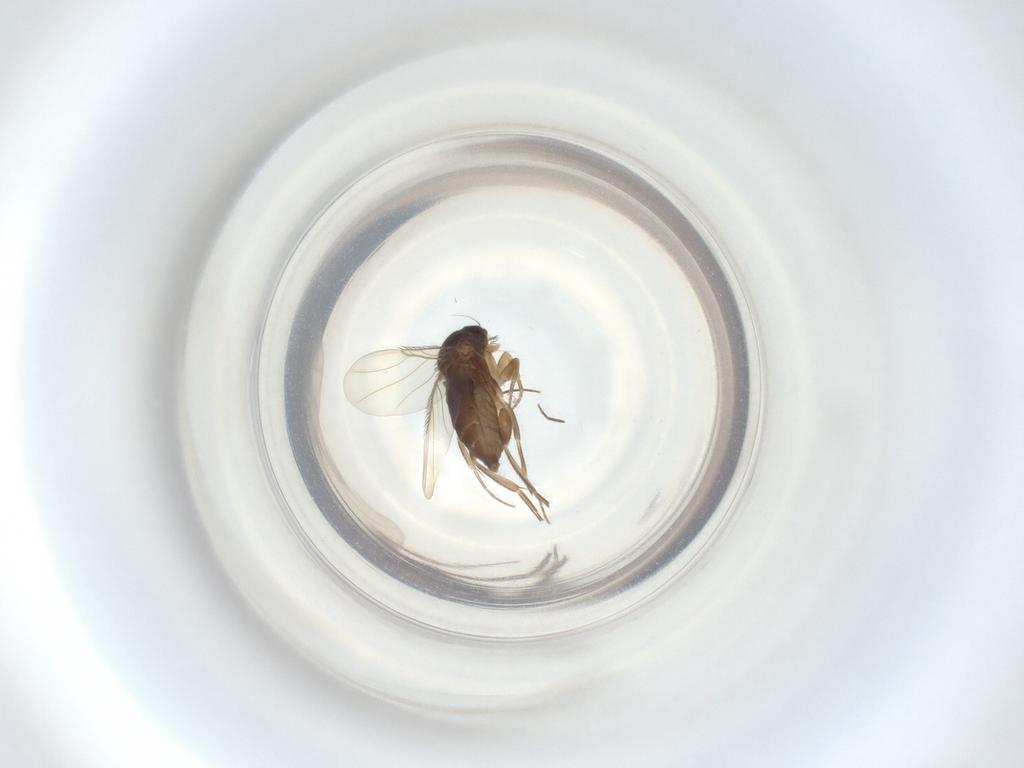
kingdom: Animalia
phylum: Arthropoda
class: Insecta
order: Diptera
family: Phoridae
